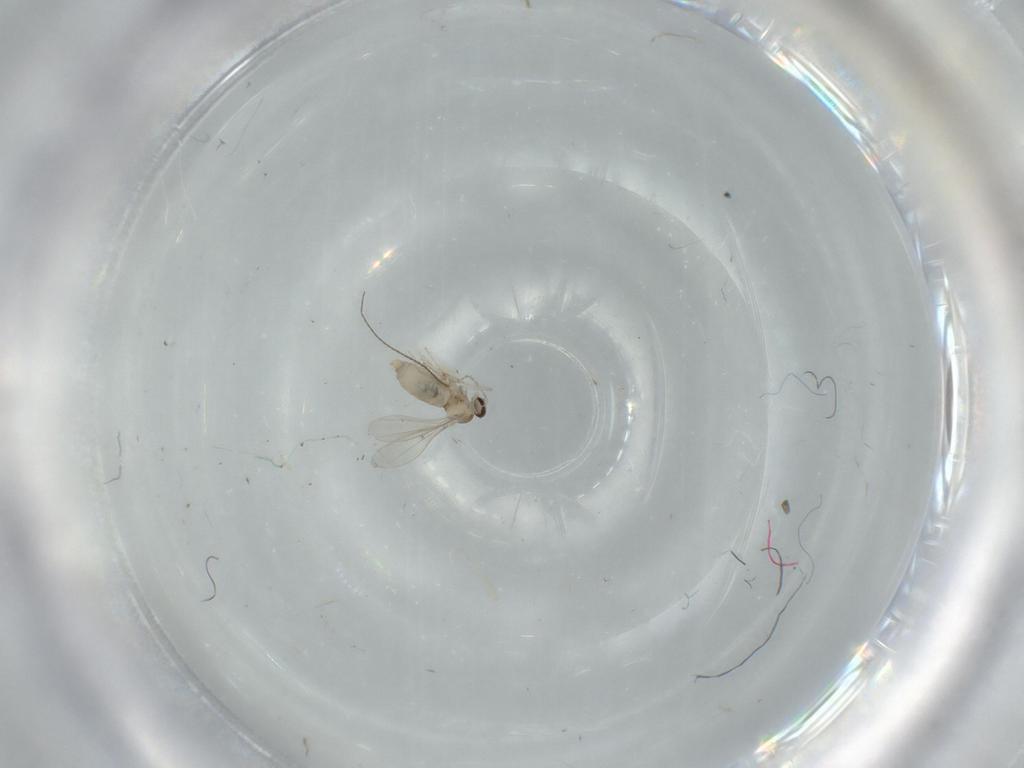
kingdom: Animalia
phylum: Arthropoda
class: Insecta
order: Diptera
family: Cecidomyiidae
